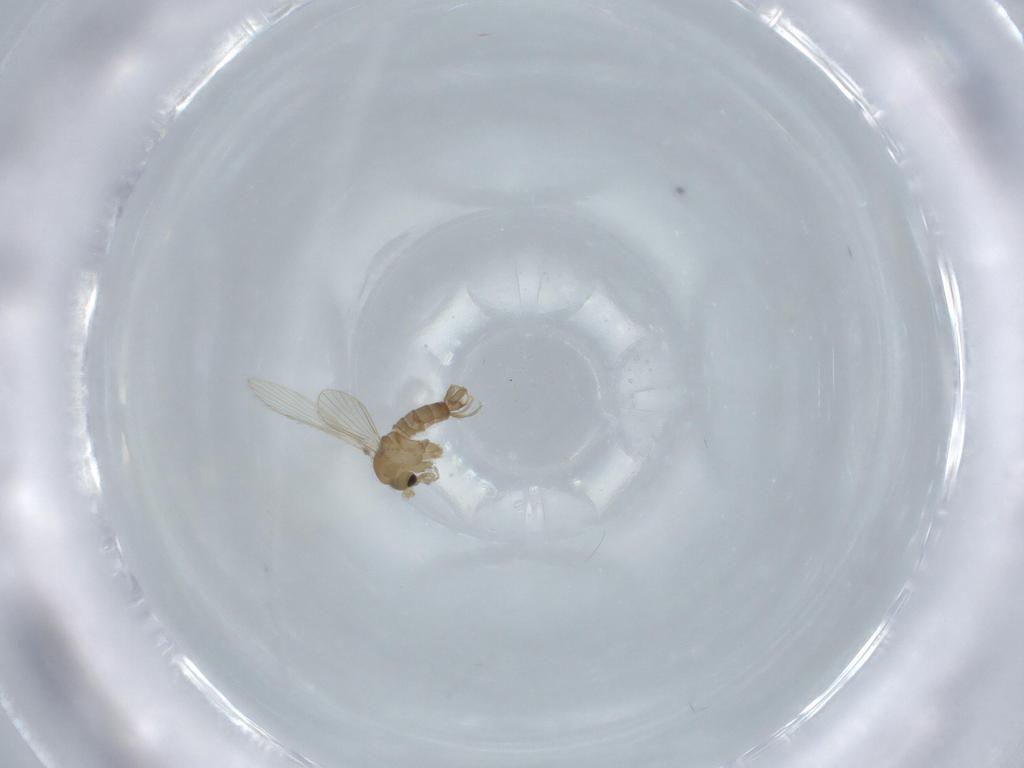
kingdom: Animalia
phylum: Arthropoda
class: Insecta
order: Diptera
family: Psychodidae
